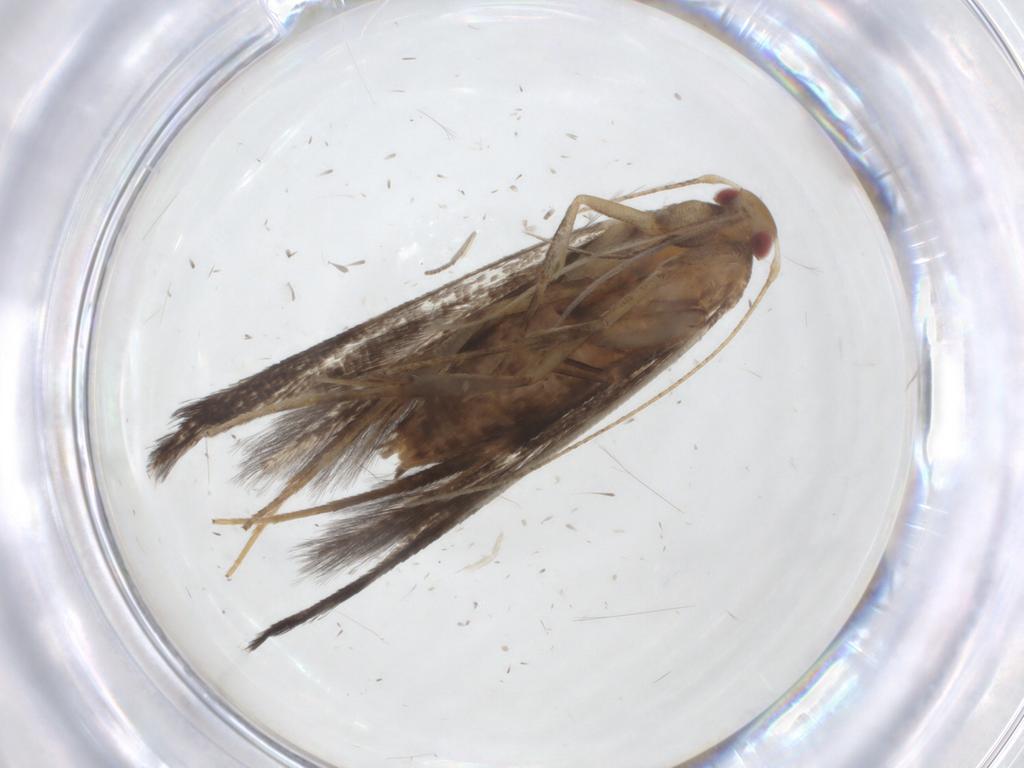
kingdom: Animalia
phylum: Arthropoda
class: Insecta
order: Lepidoptera
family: Cosmopterigidae
